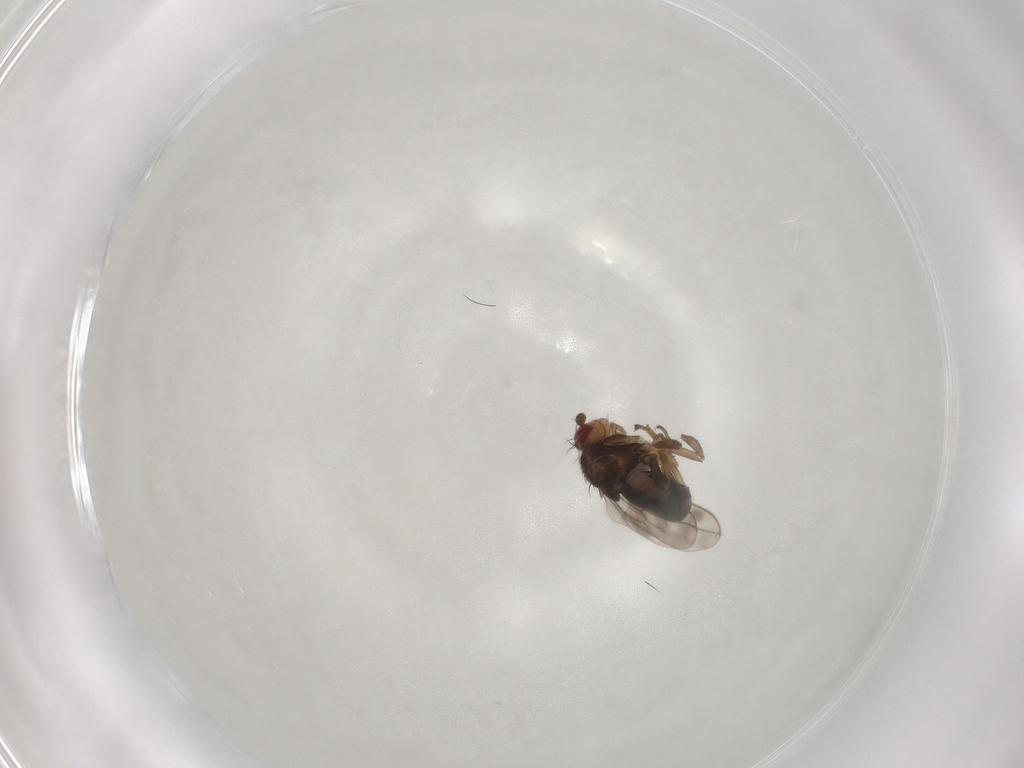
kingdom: Animalia
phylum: Arthropoda
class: Insecta
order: Diptera
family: Sphaeroceridae
